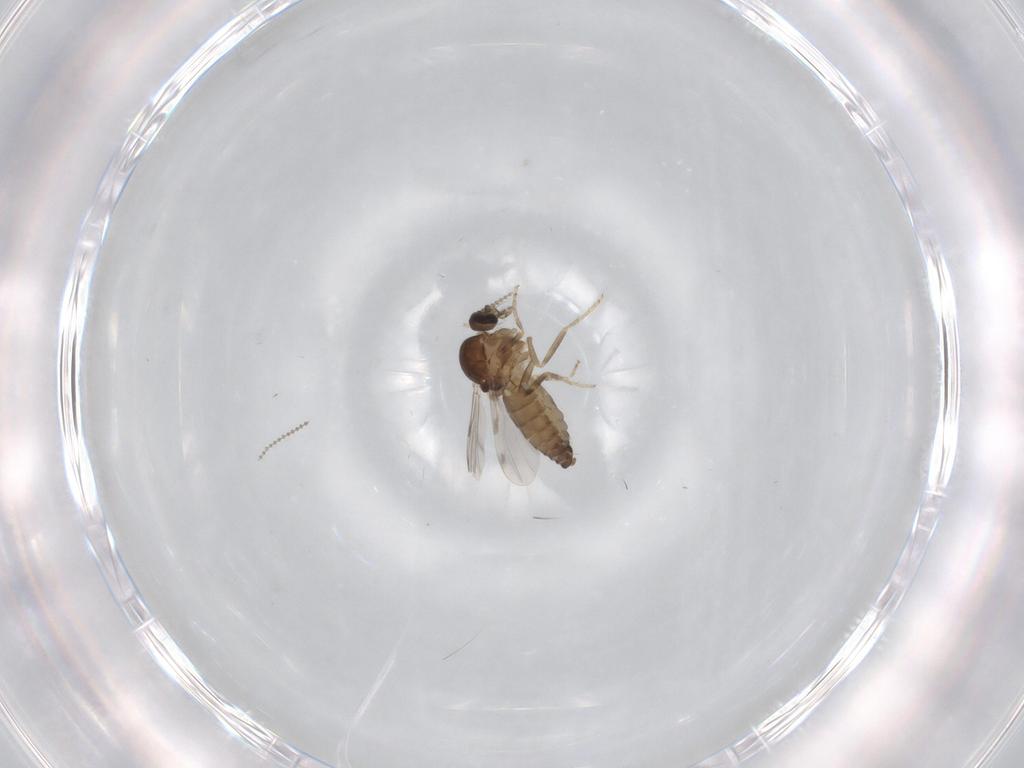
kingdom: Animalia
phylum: Arthropoda
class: Insecta
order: Diptera
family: Cecidomyiidae
